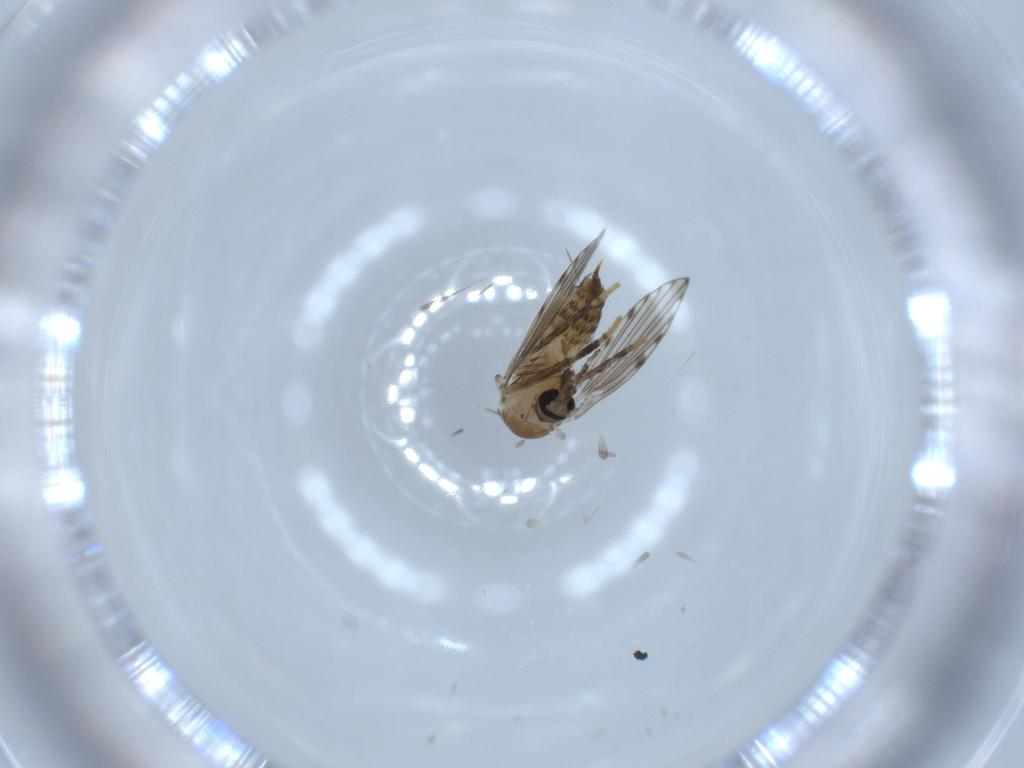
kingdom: Animalia
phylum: Arthropoda
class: Insecta
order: Diptera
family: Psychodidae
